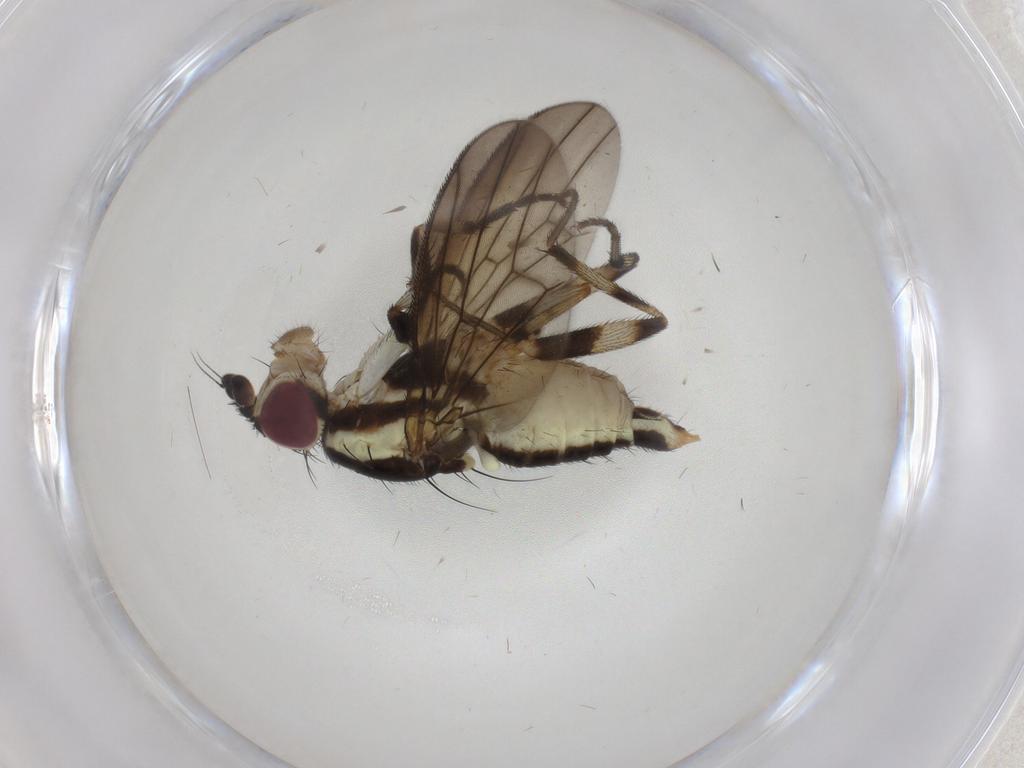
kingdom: Animalia
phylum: Arthropoda
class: Insecta
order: Diptera
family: Pseudopomyzidae
